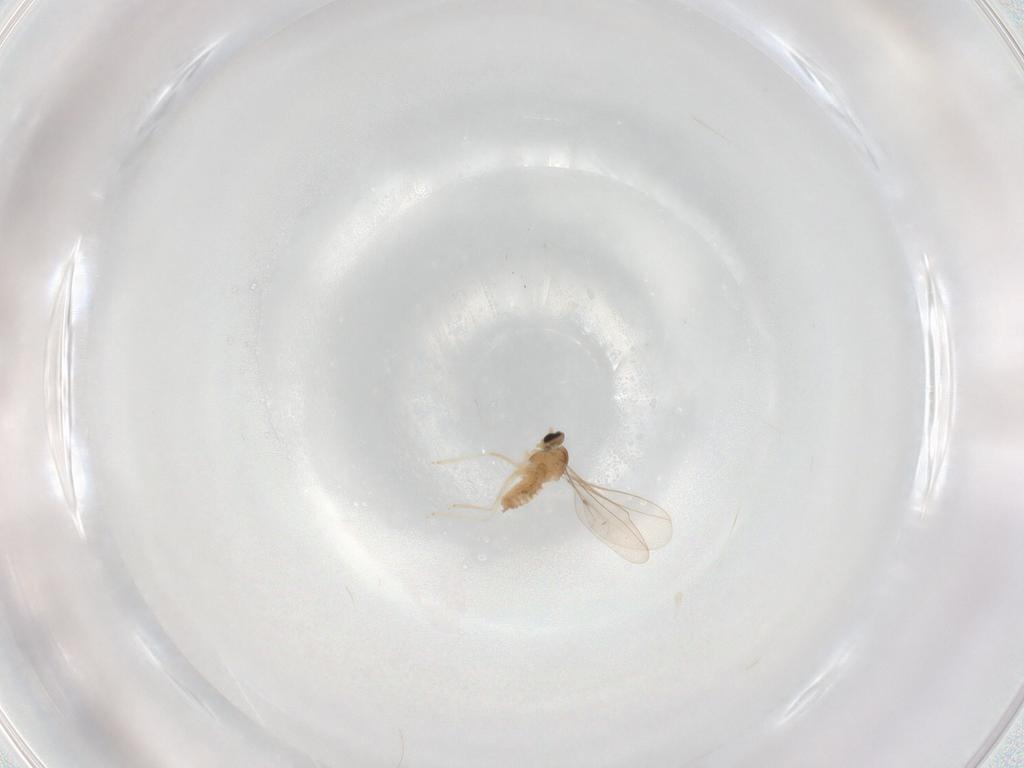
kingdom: Animalia
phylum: Arthropoda
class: Insecta
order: Diptera
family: Cecidomyiidae
